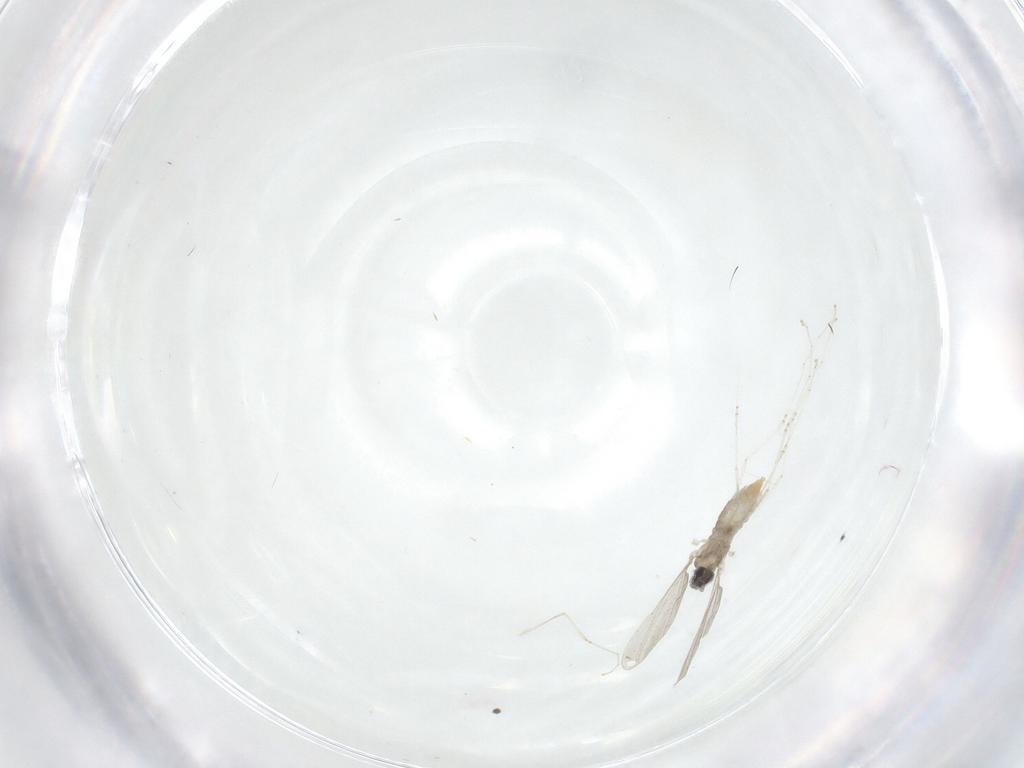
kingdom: Animalia
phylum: Arthropoda
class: Insecta
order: Diptera
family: Cecidomyiidae
